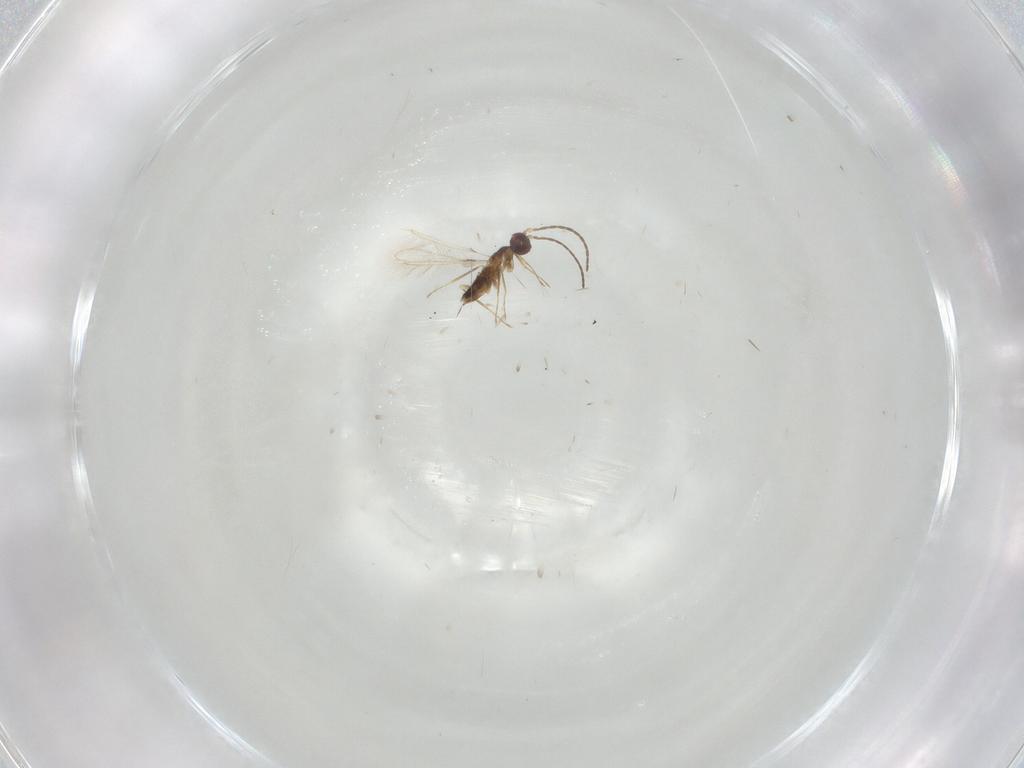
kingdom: Animalia
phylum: Arthropoda
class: Insecta
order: Hymenoptera
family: Mymaridae
